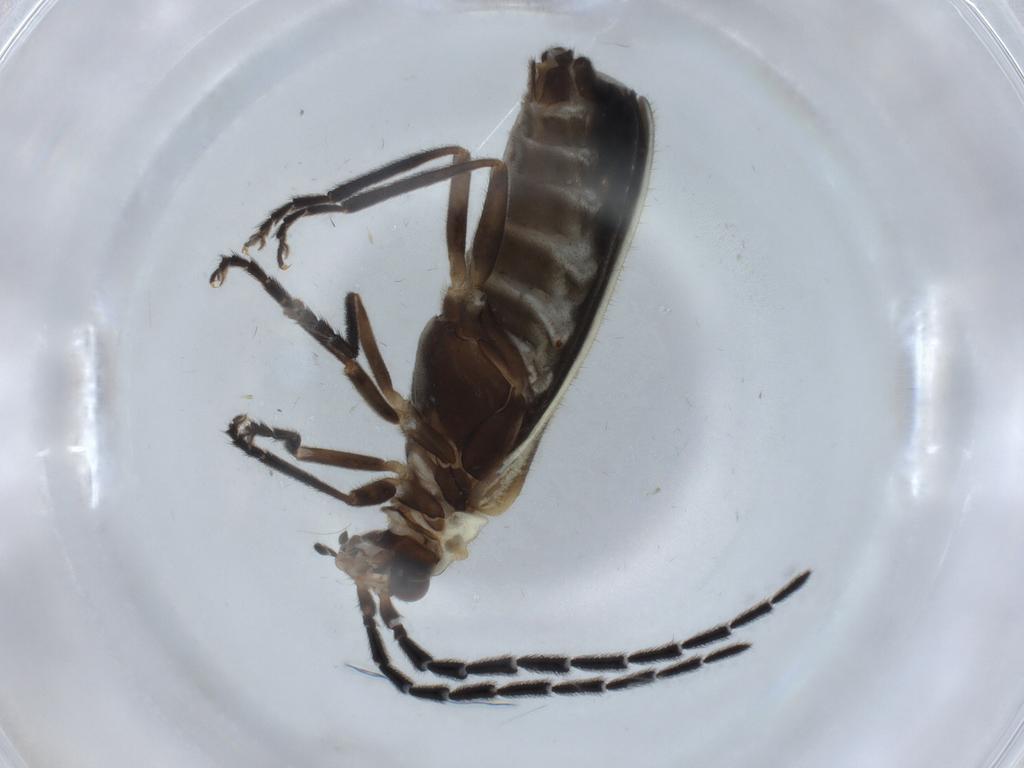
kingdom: Animalia
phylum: Arthropoda
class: Insecta
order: Coleoptera
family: Cantharidae
